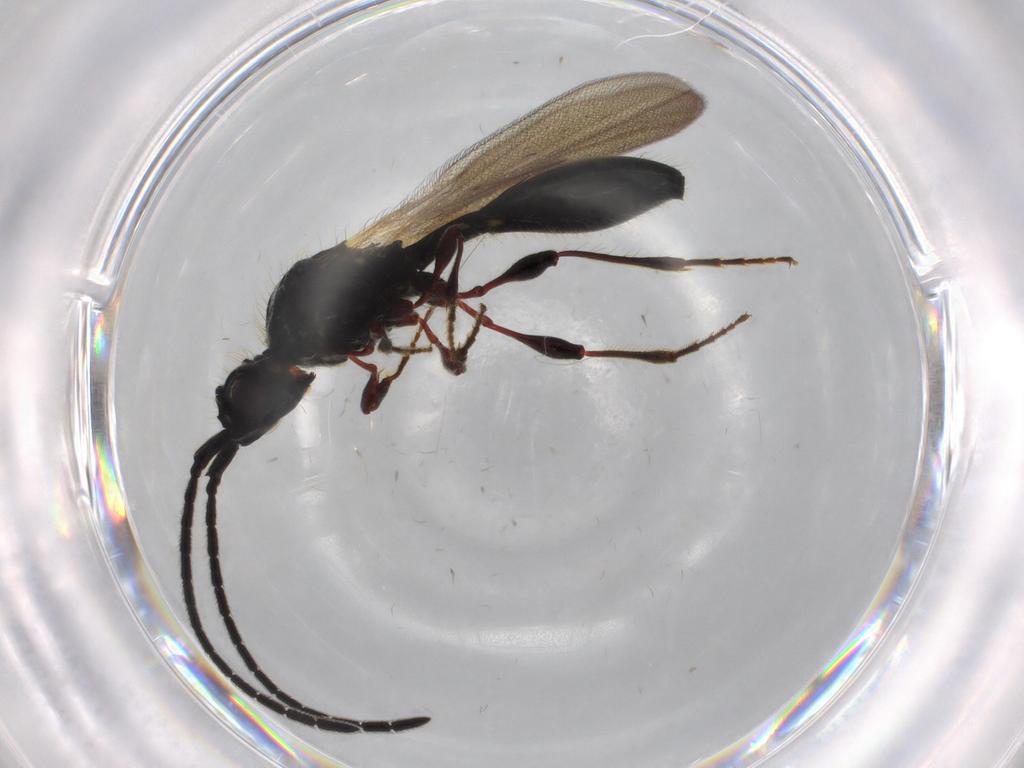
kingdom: Animalia
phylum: Arthropoda
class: Insecta
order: Hymenoptera
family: Diapriidae
